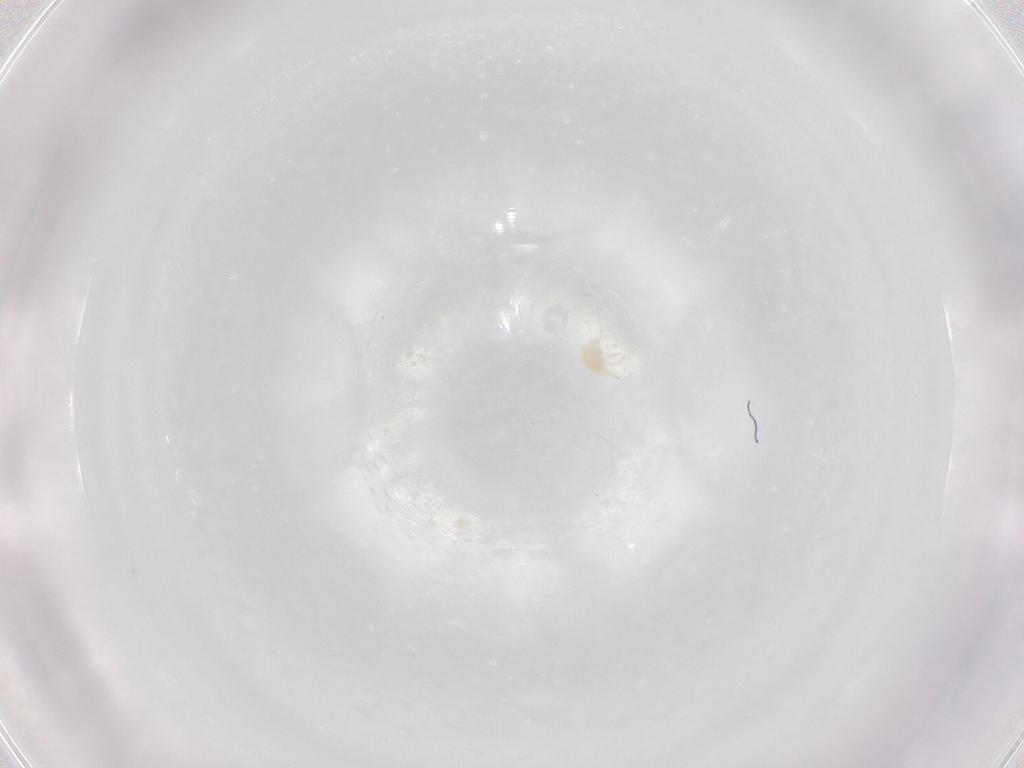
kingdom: Animalia
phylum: Arthropoda
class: Arachnida
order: Trombidiformes
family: Bdellidae
